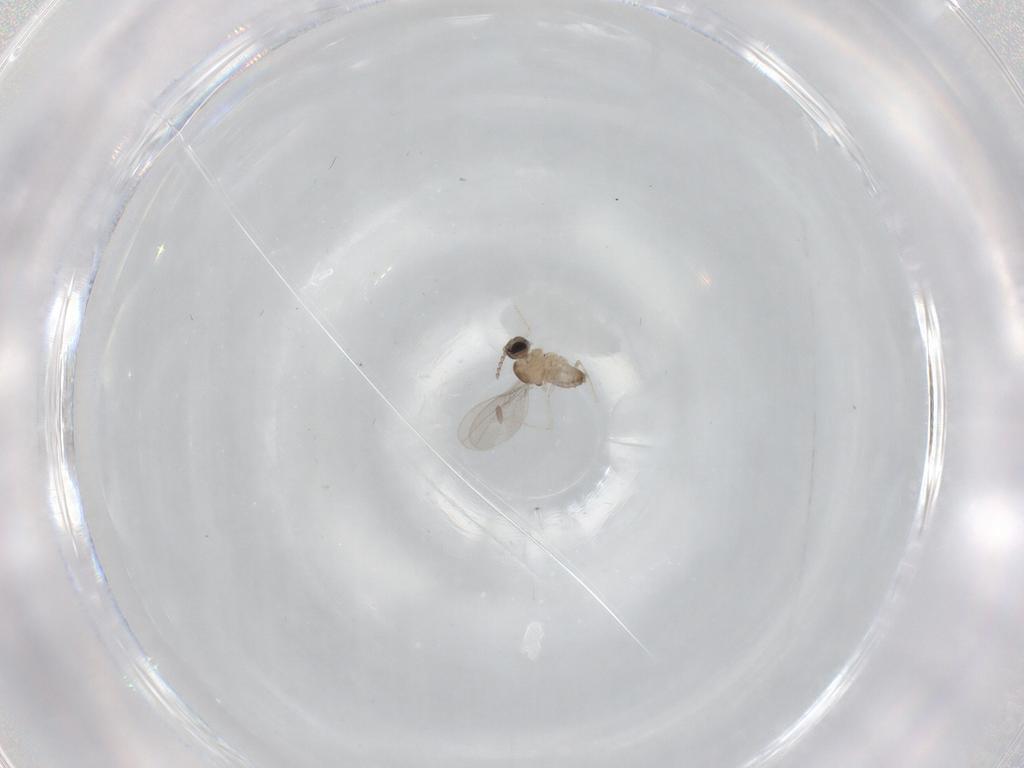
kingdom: Animalia
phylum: Arthropoda
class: Insecta
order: Diptera
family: Cecidomyiidae
